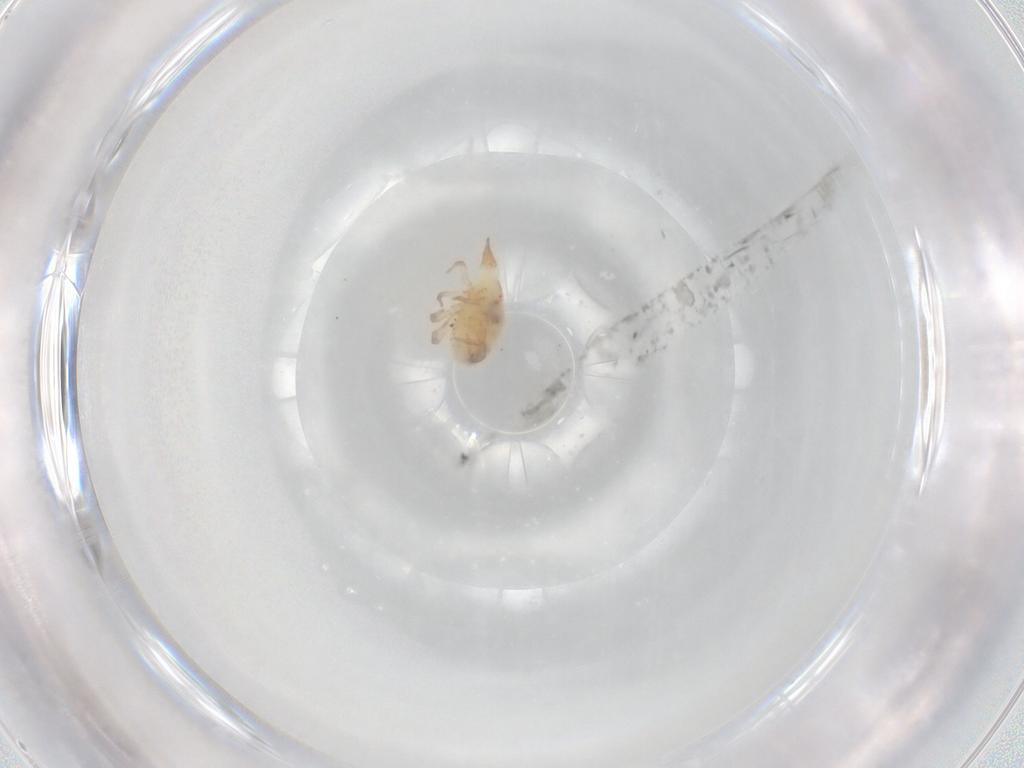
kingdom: Animalia
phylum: Arthropoda
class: Arachnida
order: Trombidiformes
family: Bdellidae
